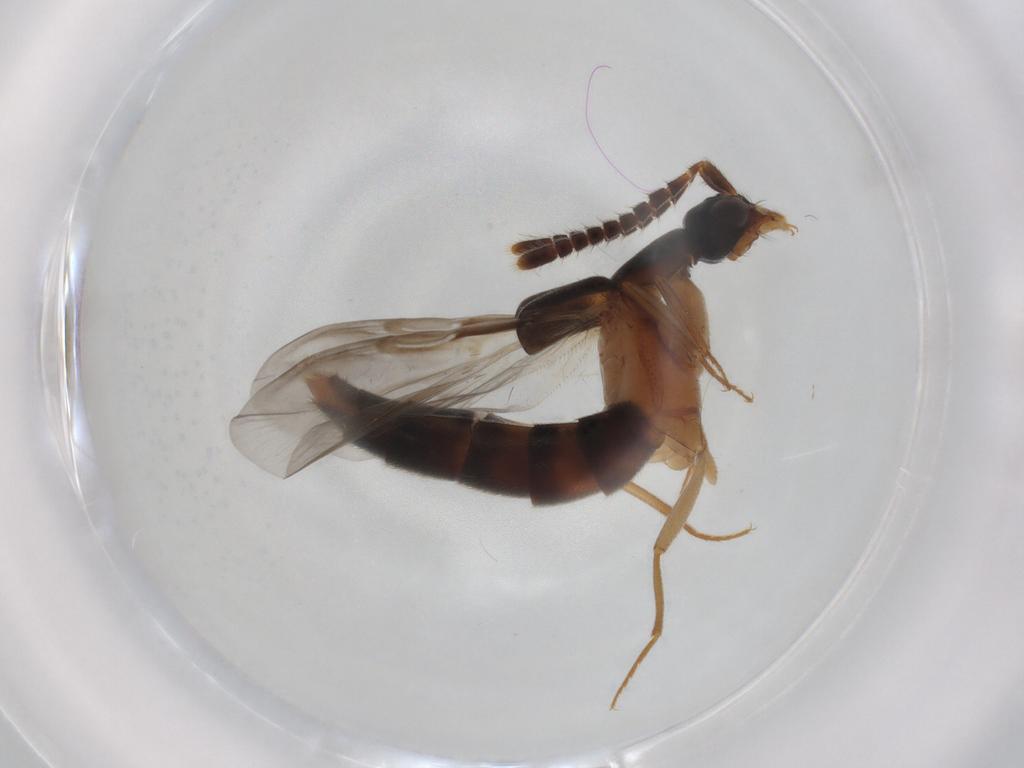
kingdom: Animalia
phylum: Arthropoda
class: Insecta
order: Coleoptera
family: Staphylinidae
